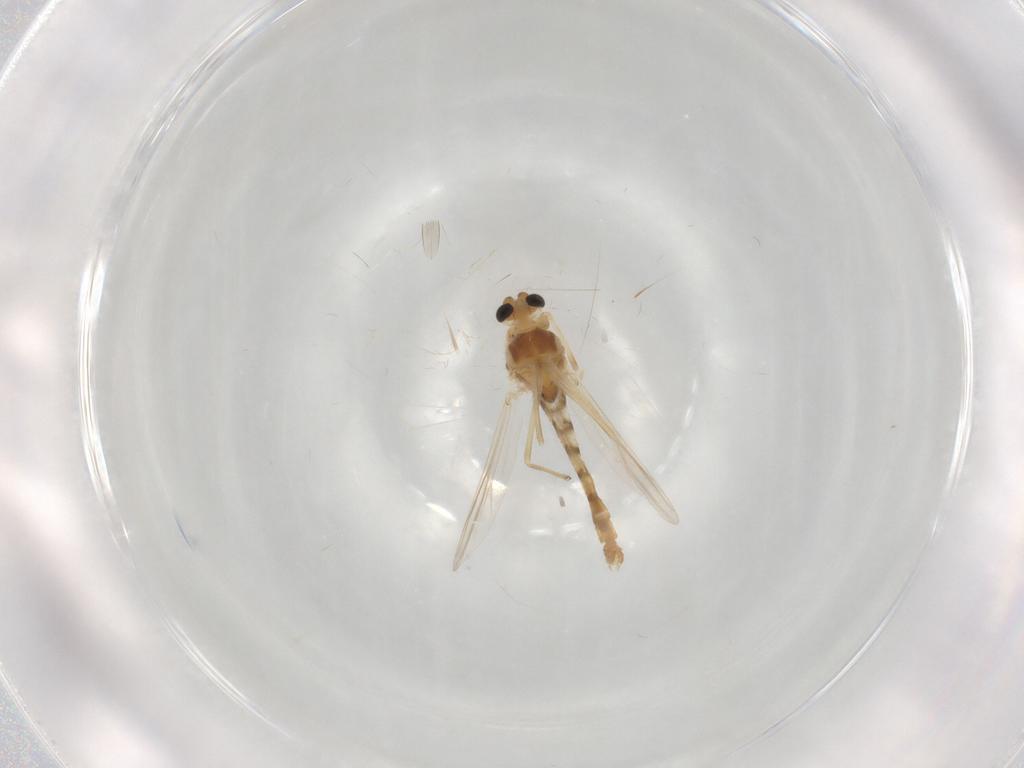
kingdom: Animalia
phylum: Arthropoda
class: Insecta
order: Diptera
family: Chironomidae
